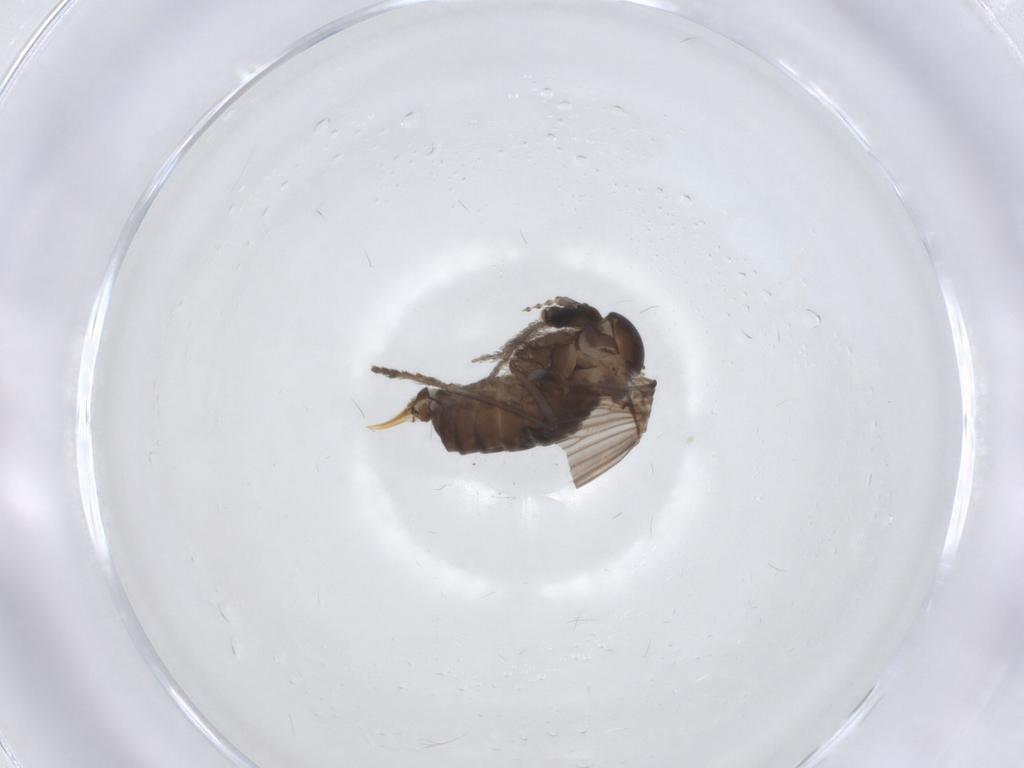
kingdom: Animalia
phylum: Arthropoda
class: Insecta
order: Diptera
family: Psychodidae
